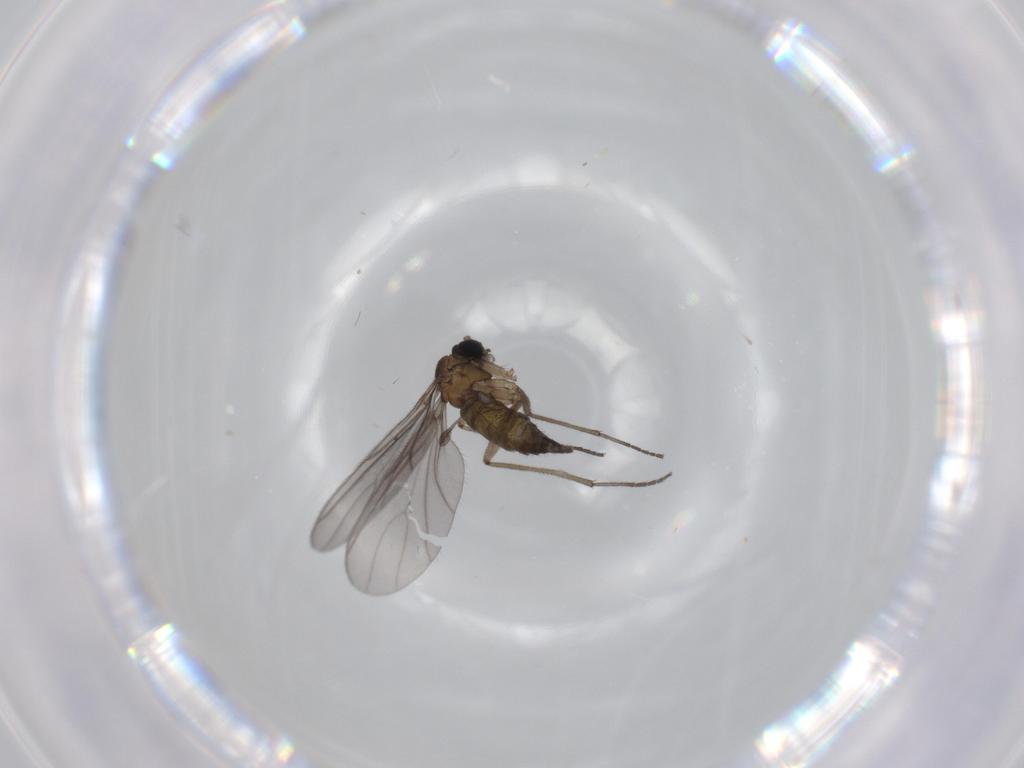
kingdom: Animalia
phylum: Arthropoda
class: Insecta
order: Diptera
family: Sciaridae
